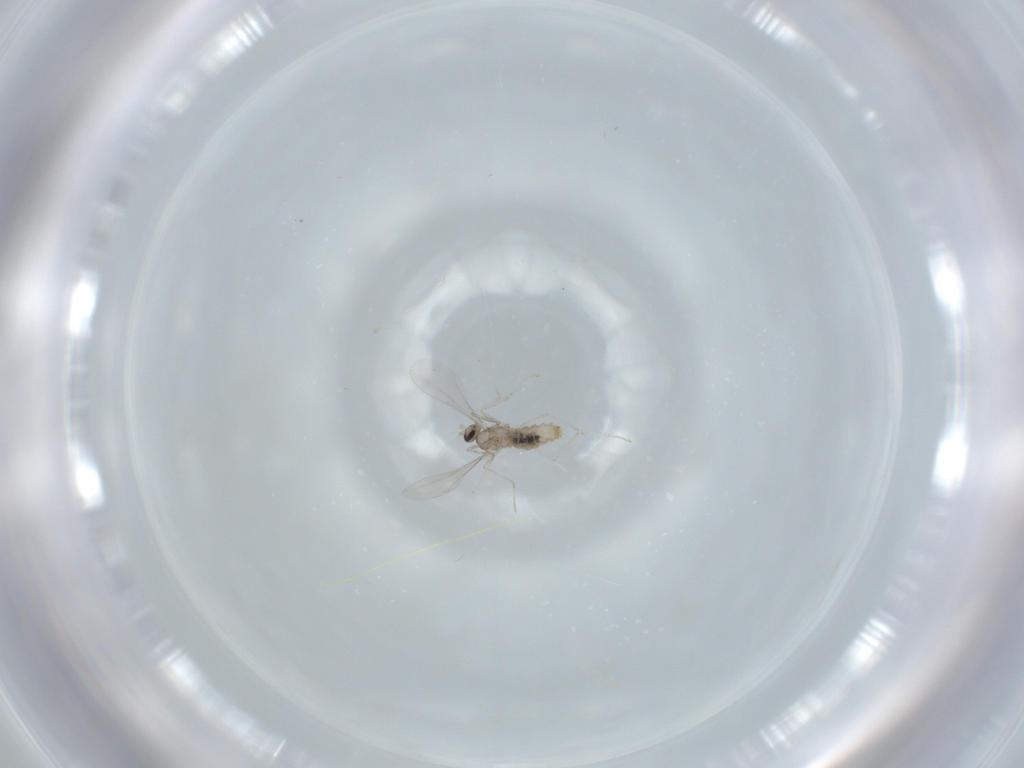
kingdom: Animalia
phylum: Arthropoda
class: Insecta
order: Diptera
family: Cecidomyiidae
